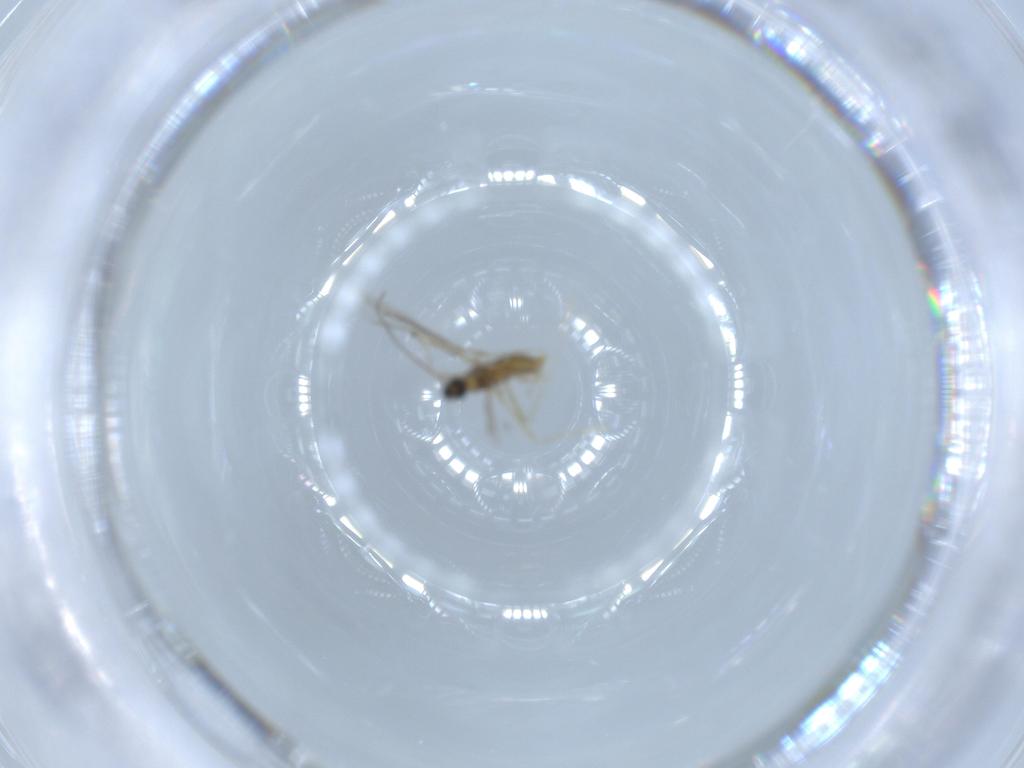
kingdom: Animalia
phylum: Arthropoda
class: Insecta
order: Diptera
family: Cecidomyiidae
